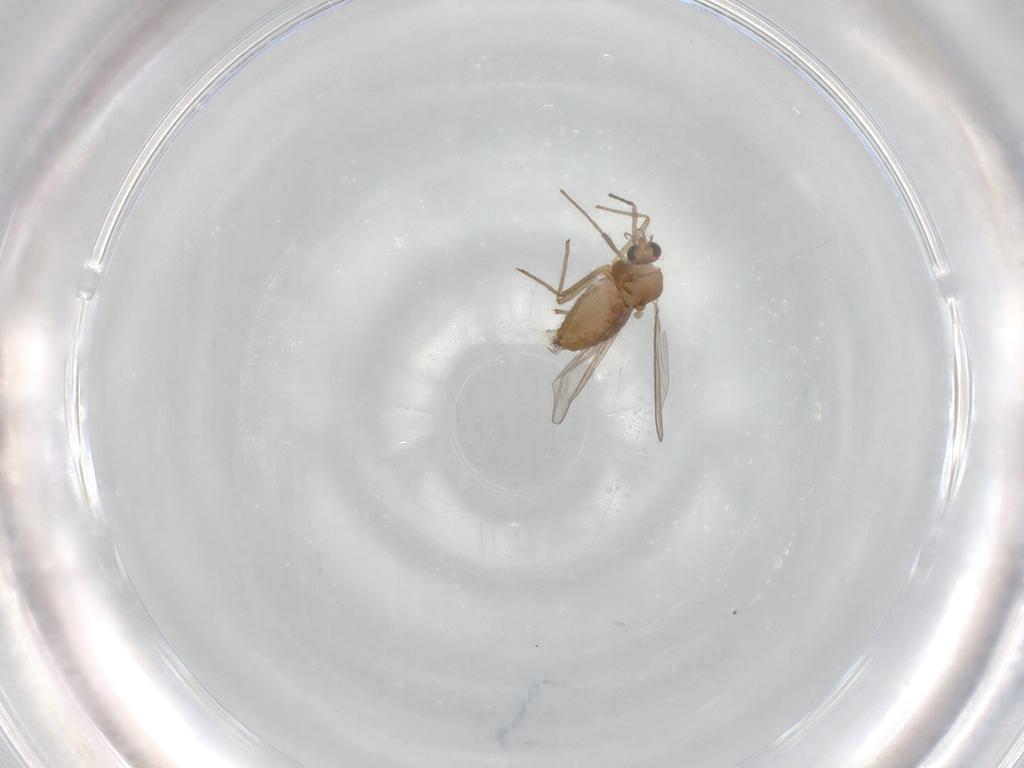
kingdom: Animalia
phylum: Arthropoda
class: Insecta
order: Diptera
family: Chironomidae
